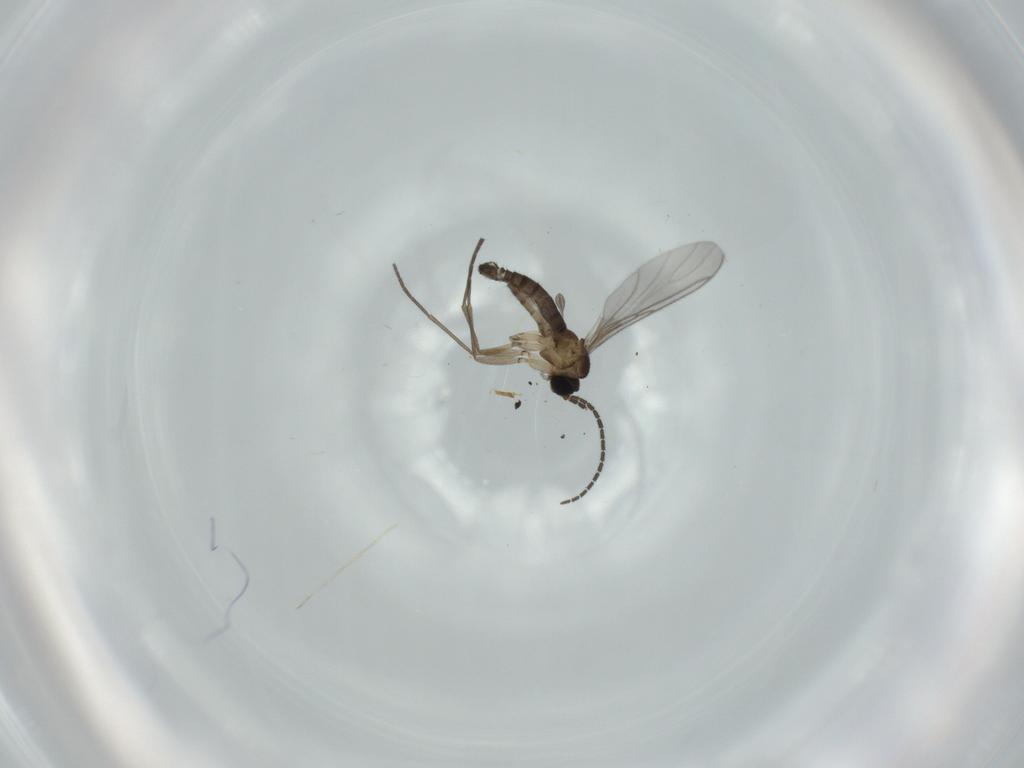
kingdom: Animalia
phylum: Arthropoda
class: Insecta
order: Diptera
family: Sciaridae
